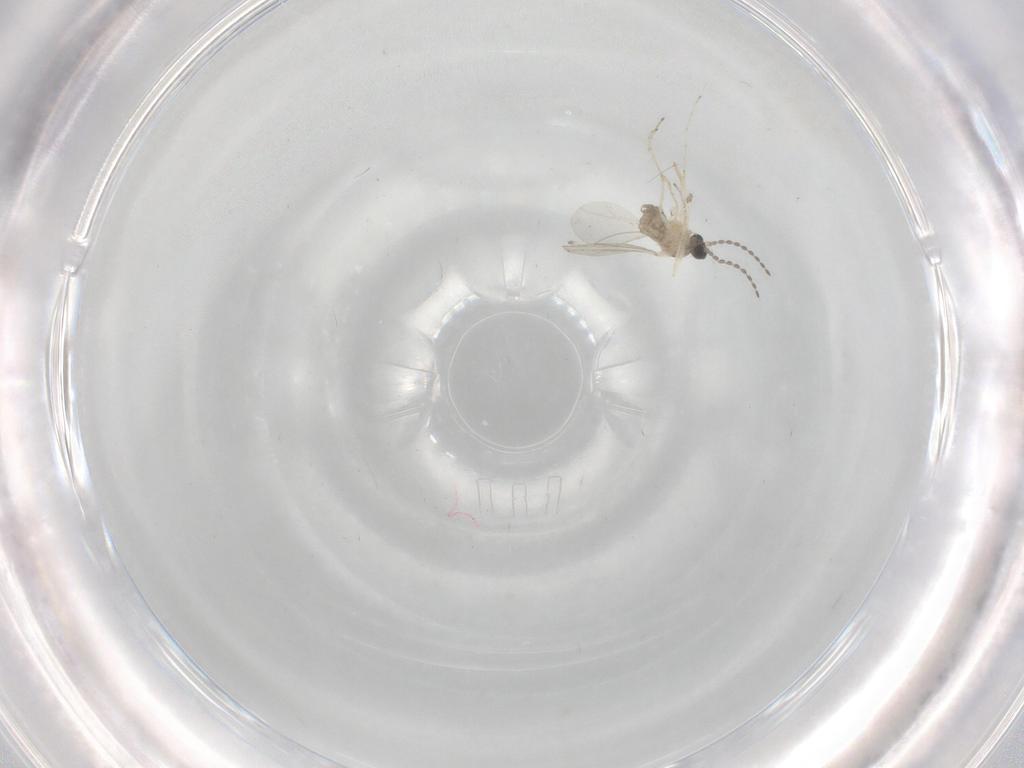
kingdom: Animalia
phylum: Arthropoda
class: Insecta
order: Diptera
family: Cecidomyiidae
